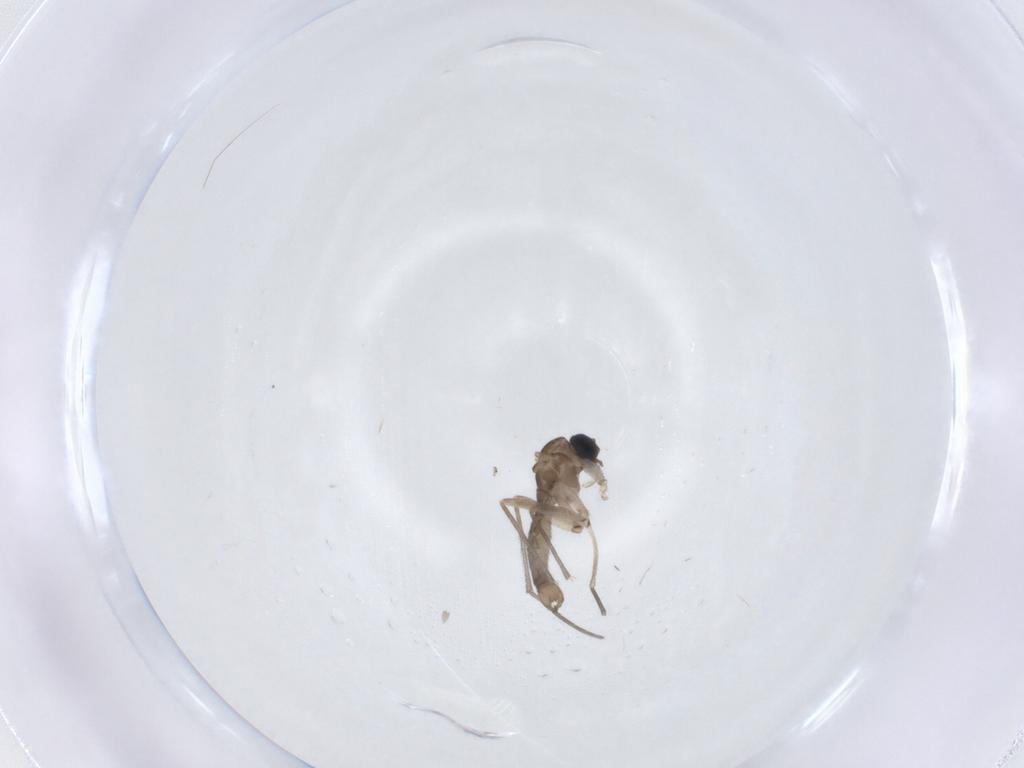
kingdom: Animalia
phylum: Arthropoda
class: Insecta
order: Diptera
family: Sciaridae
